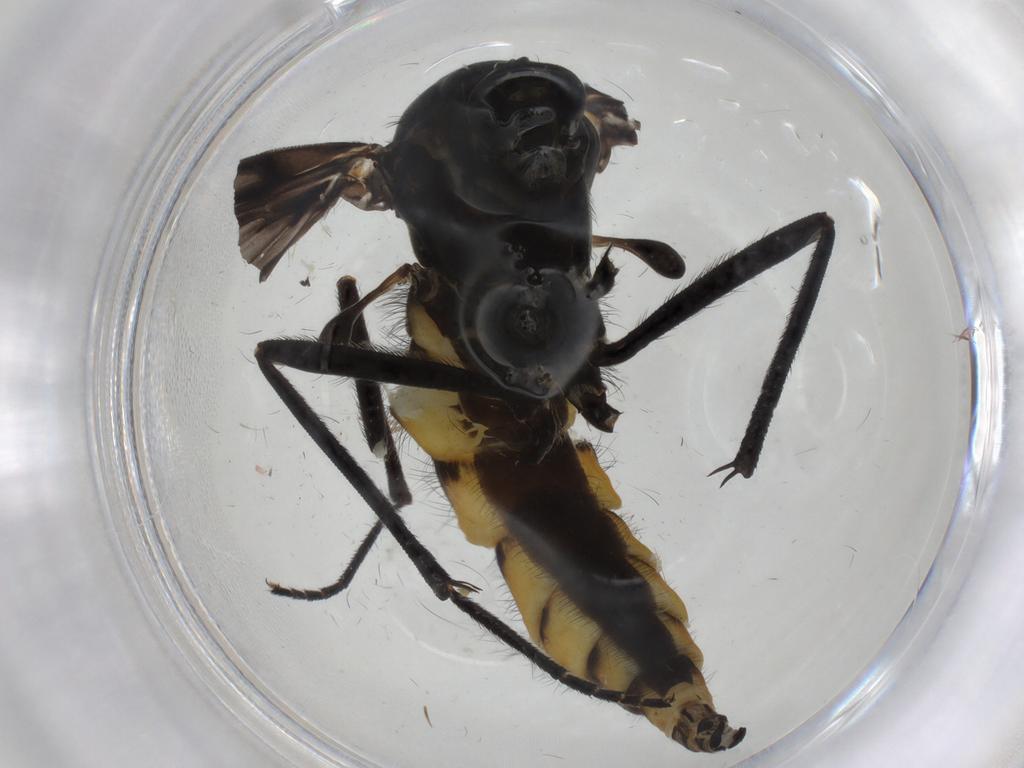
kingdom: Animalia
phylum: Arthropoda
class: Insecta
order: Diptera
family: Sciaridae
